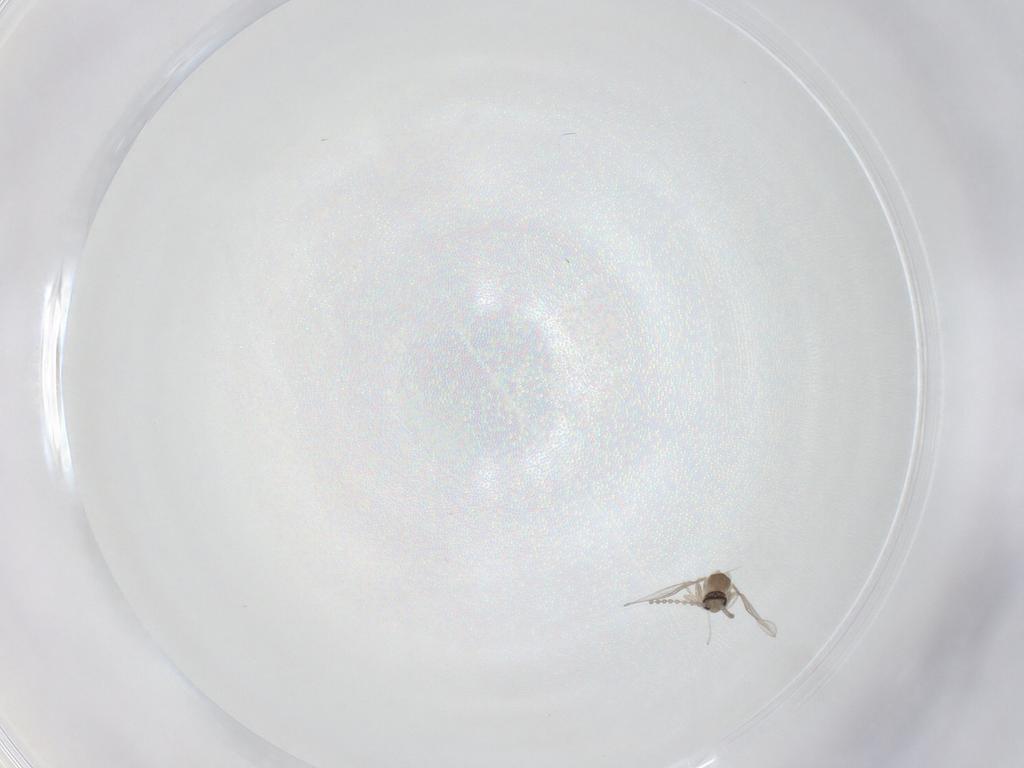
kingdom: Animalia
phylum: Arthropoda
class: Insecta
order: Diptera
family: Cecidomyiidae
